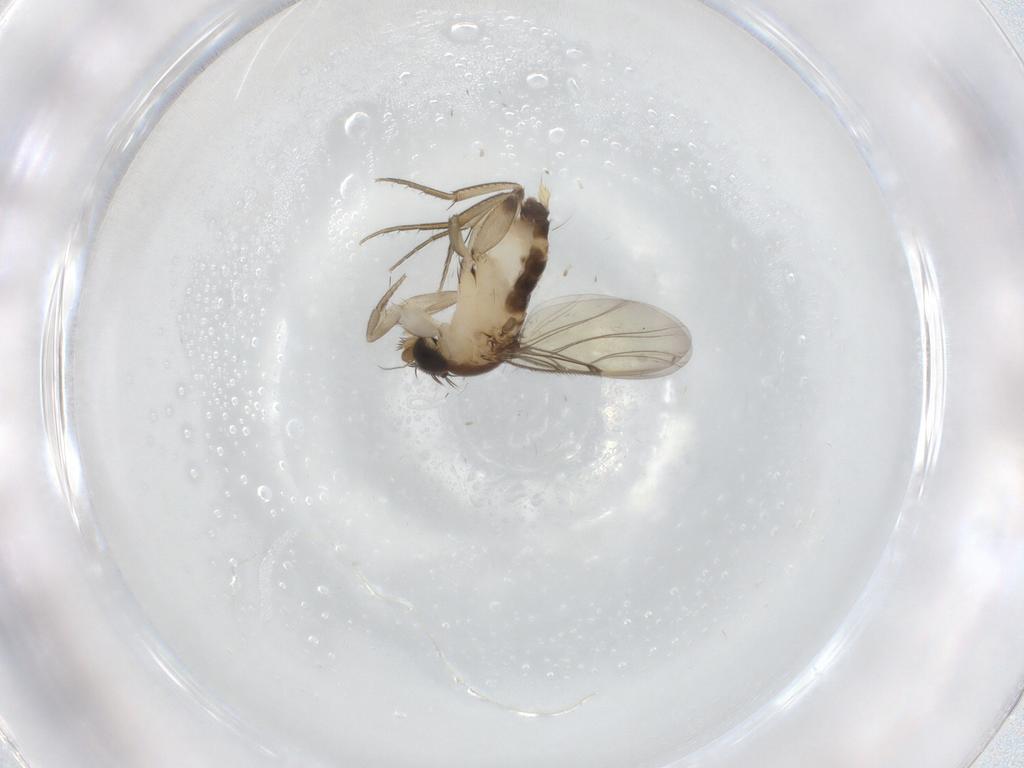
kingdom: Animalia
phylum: Arthropoda
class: Insecta
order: Diptera
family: Phoridae
